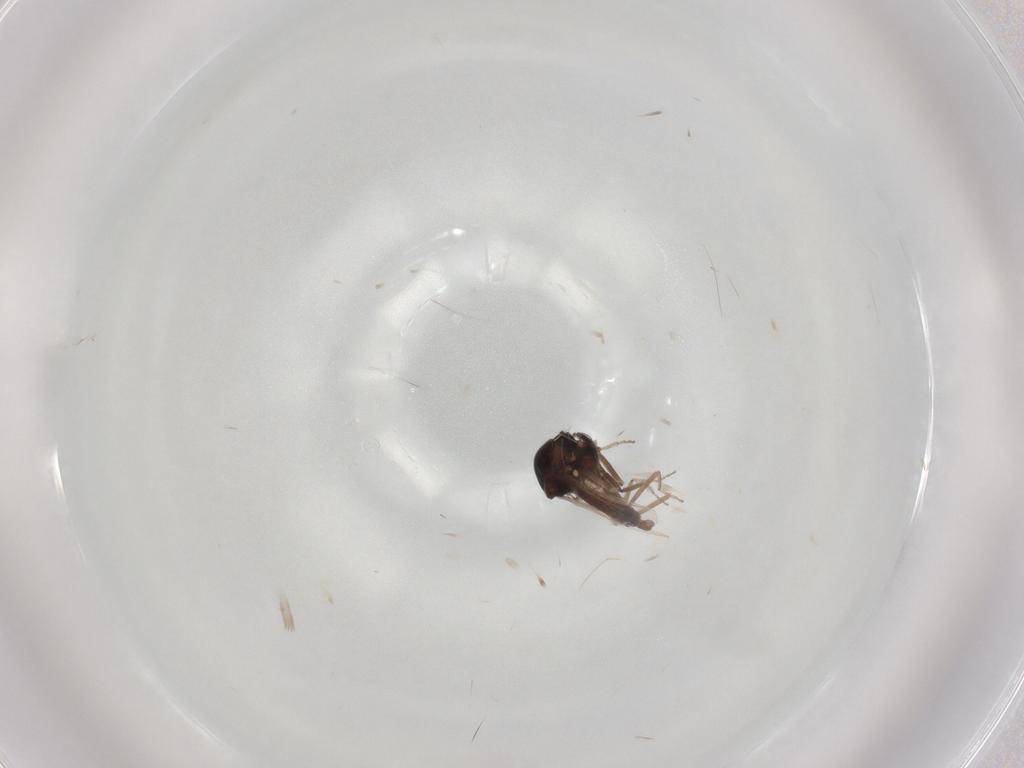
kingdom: Animalia
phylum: Arthropoda
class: Insecta
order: Diptera
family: Ceratopogonidae
